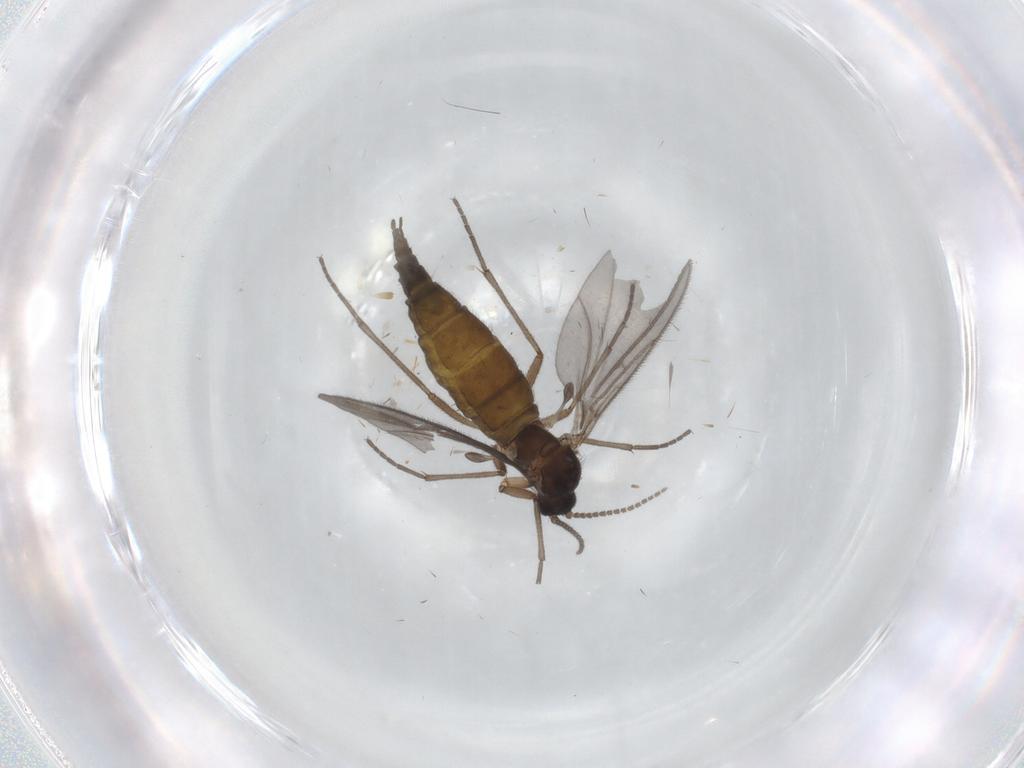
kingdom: Animalia
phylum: Arthropoda
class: Insecta
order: Diptera
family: Sciaridae
